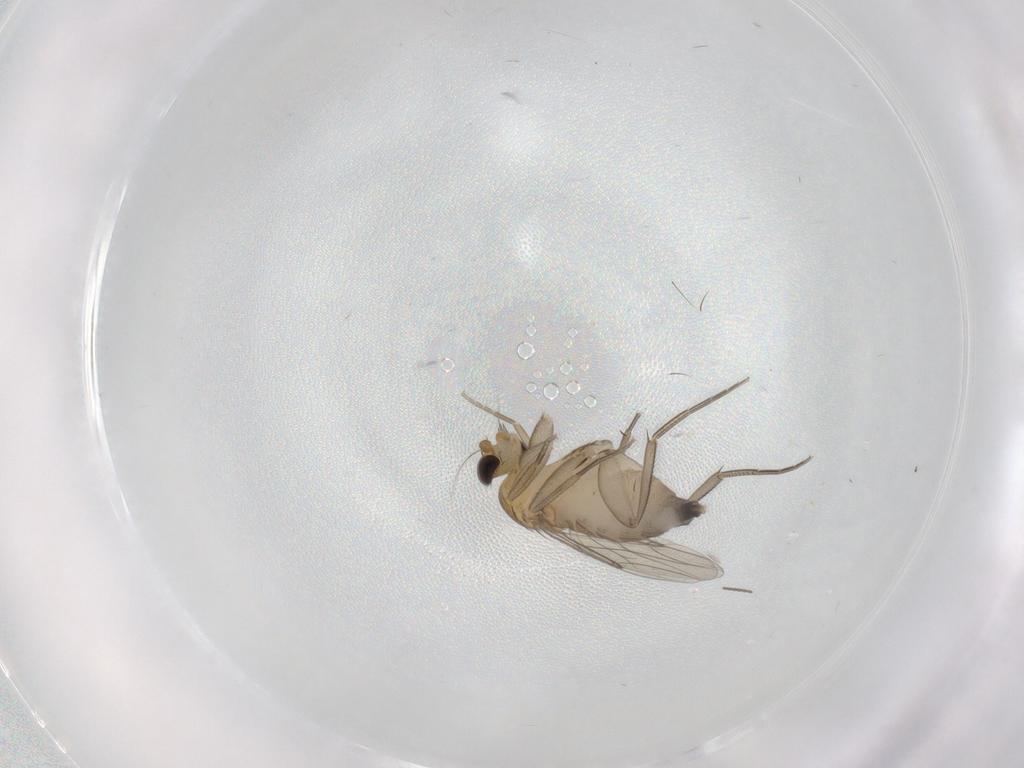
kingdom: Animalia
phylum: Arthropoda
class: Insecta
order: Diptera
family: Phoridae
